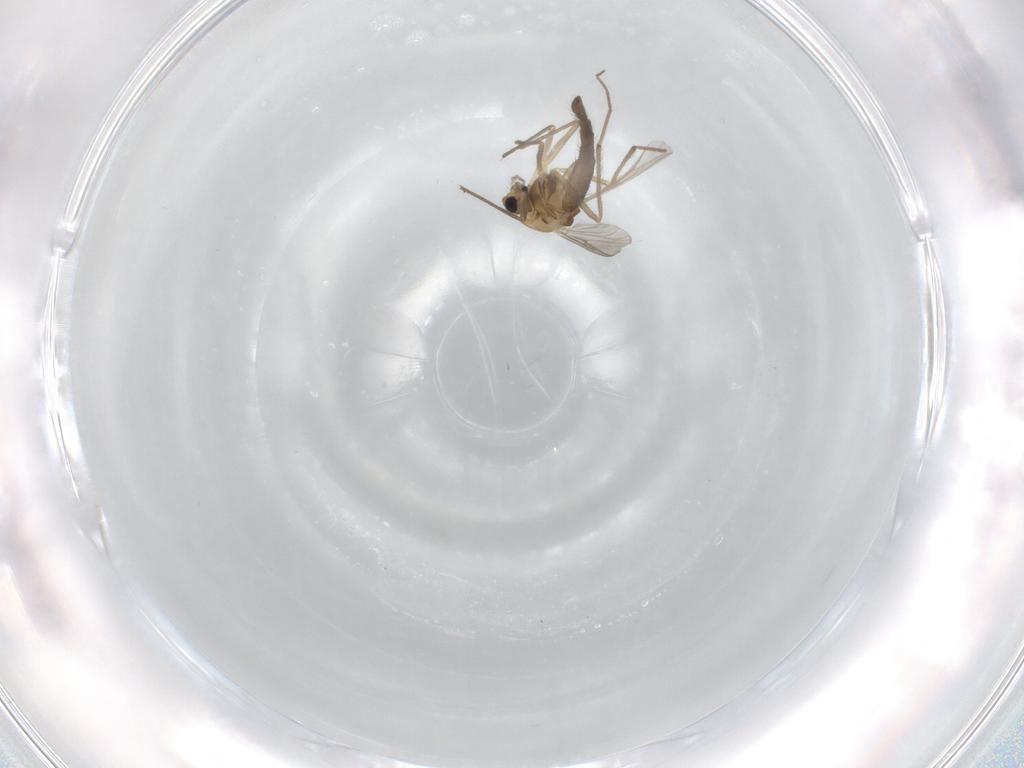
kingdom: Animalia
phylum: Arthropoda
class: Insecta
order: Diptera
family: Chironomidae
